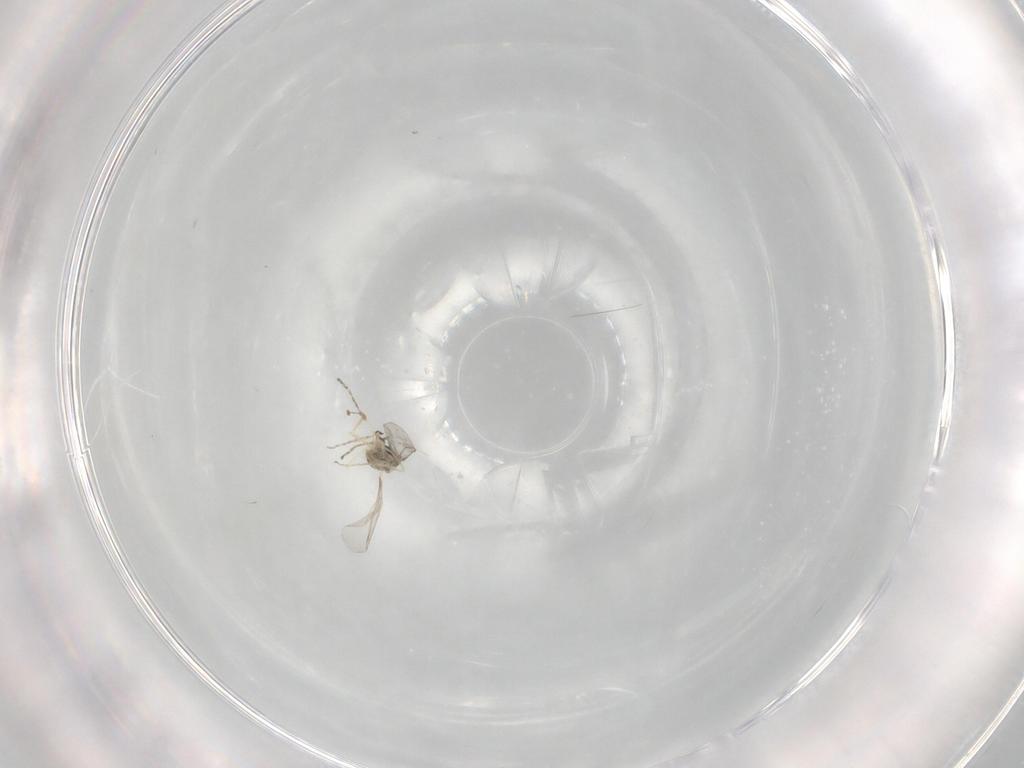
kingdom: Animalia
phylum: Arthropoda
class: Insecta
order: Diptera
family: Cecidomyiidae
